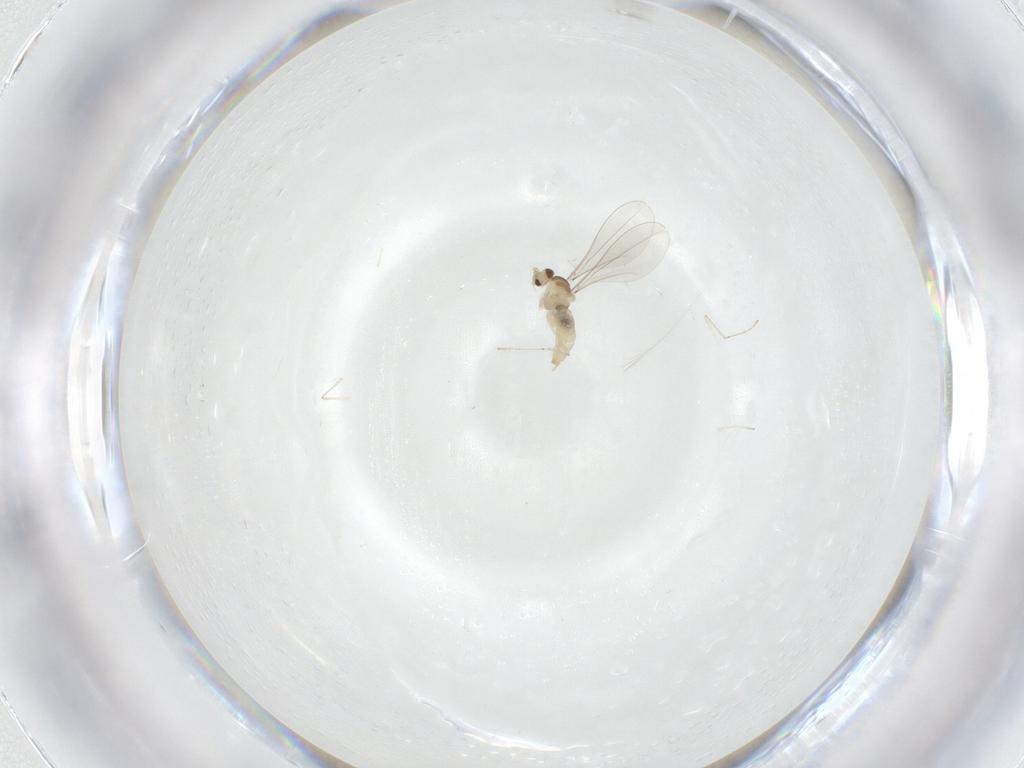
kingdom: Animalia
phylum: Arthropoda
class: Insecta
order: Diptera
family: Cecidomyiidae
